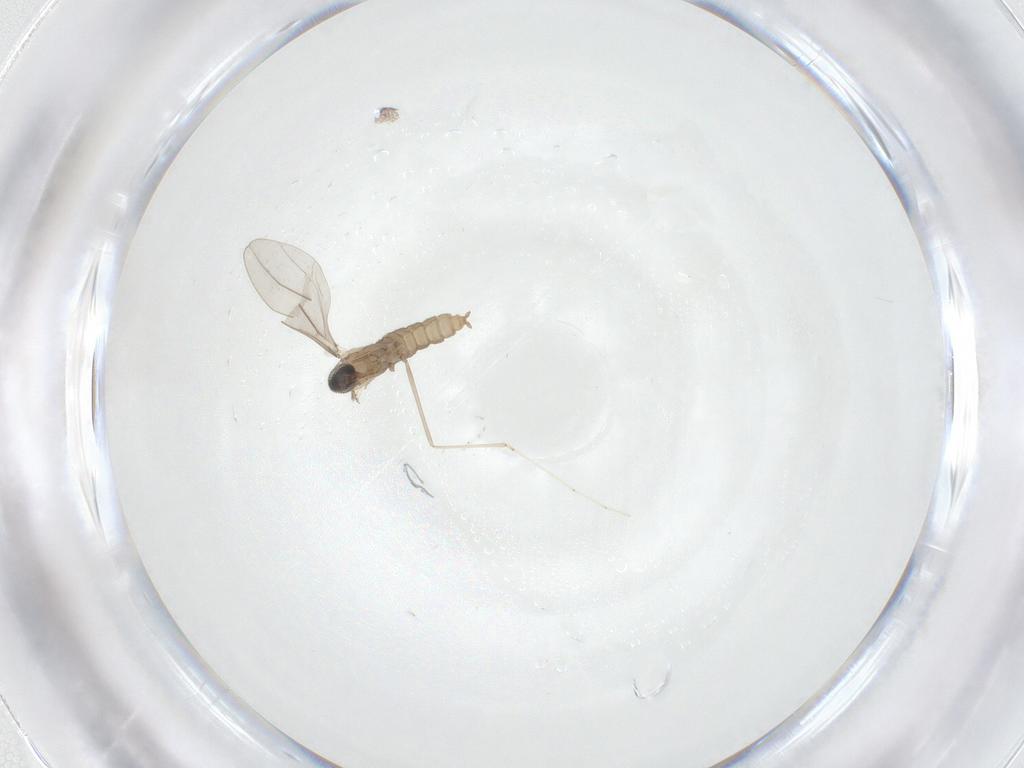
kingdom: Animalia
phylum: Arthropoda
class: Insecta
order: Diptera
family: Cecidomyiidae
